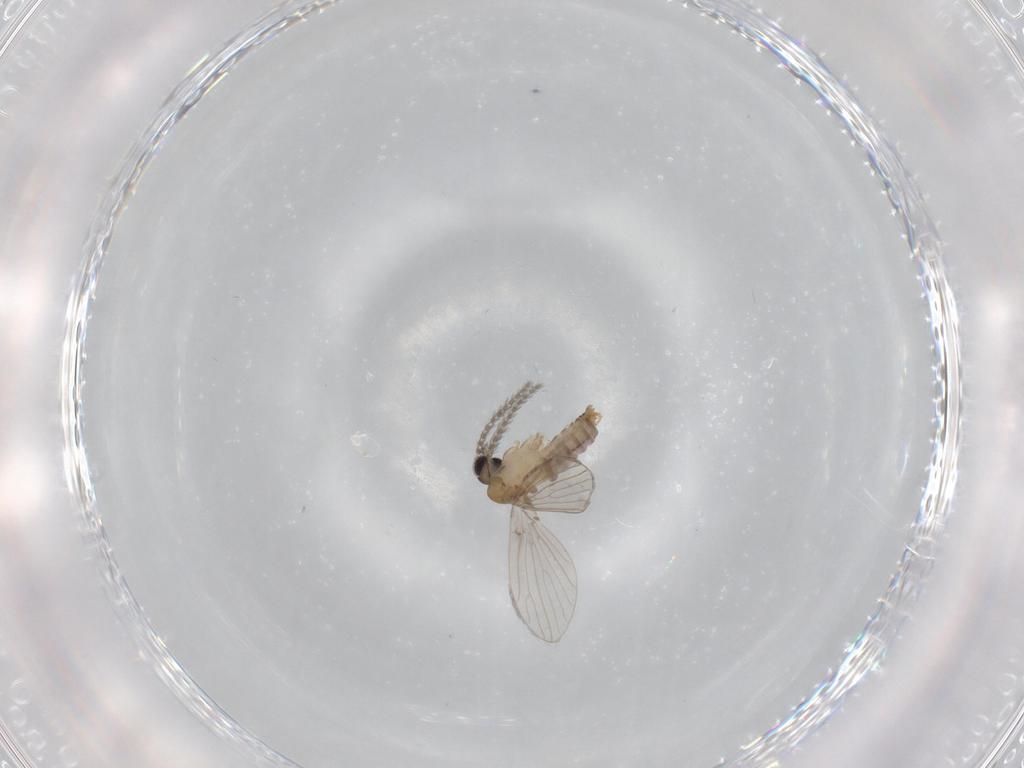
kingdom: Animalia
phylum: Arthropoda
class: Insecta
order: Diptera
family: Psychodidae
